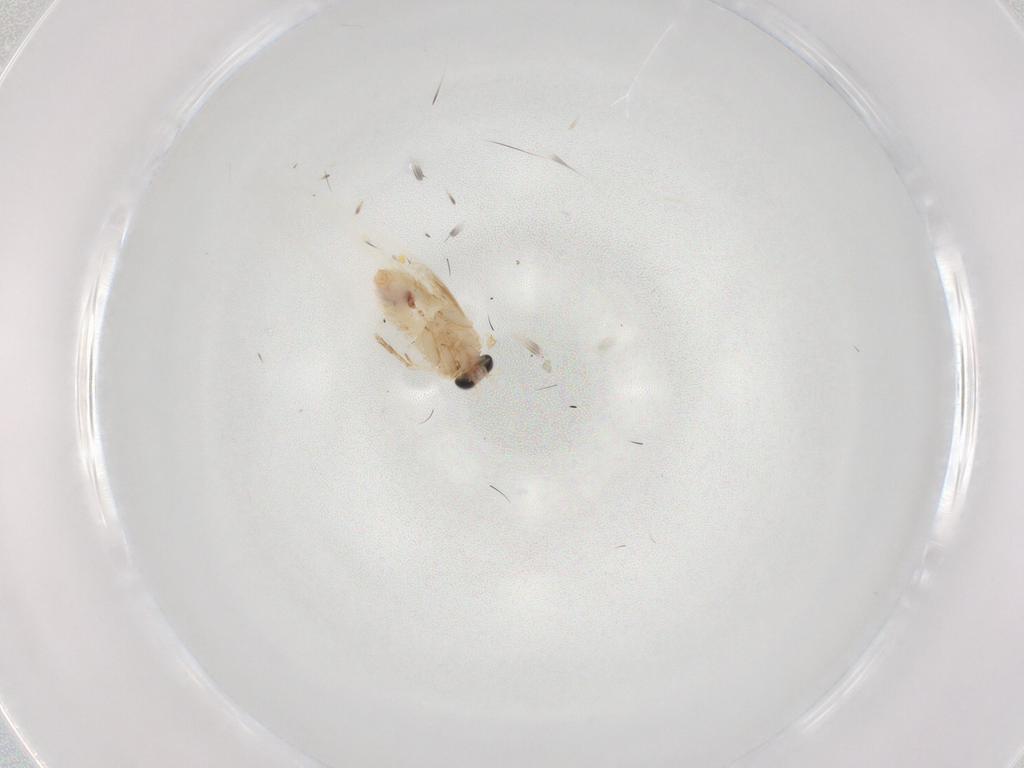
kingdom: Animalia
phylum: Arthropoda
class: Insecta
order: Lepidoptera
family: Nepticulidae
